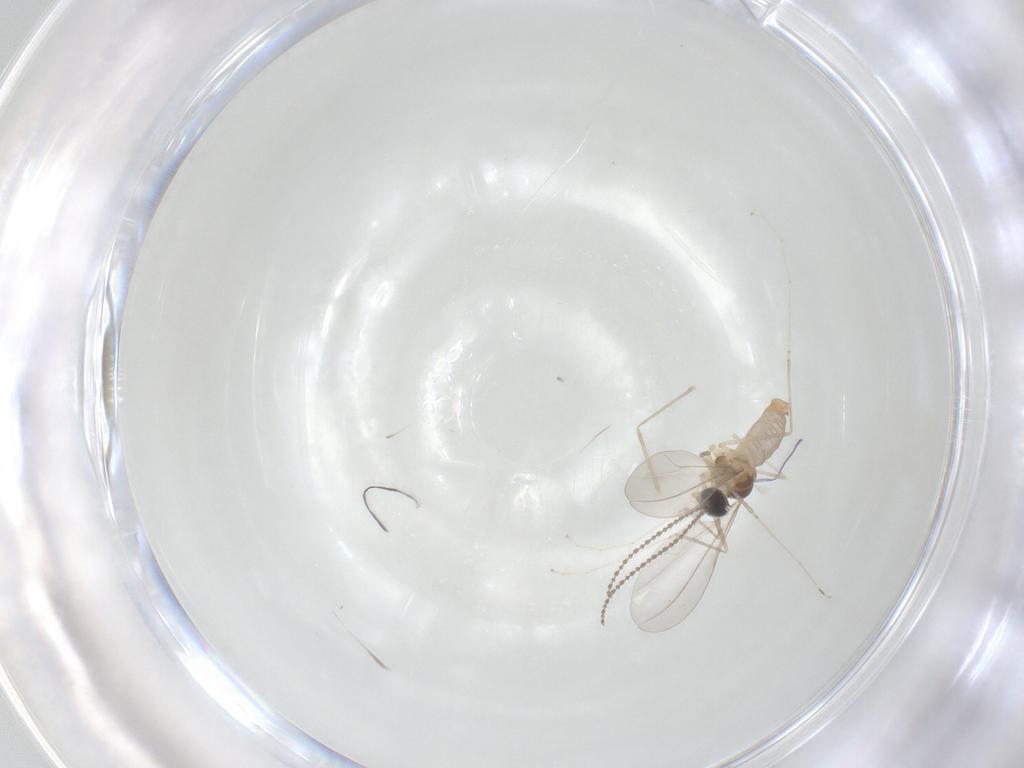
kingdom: Animalia
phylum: Arthropoda
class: Insecta
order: Diptera
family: Cecidomyiidae
